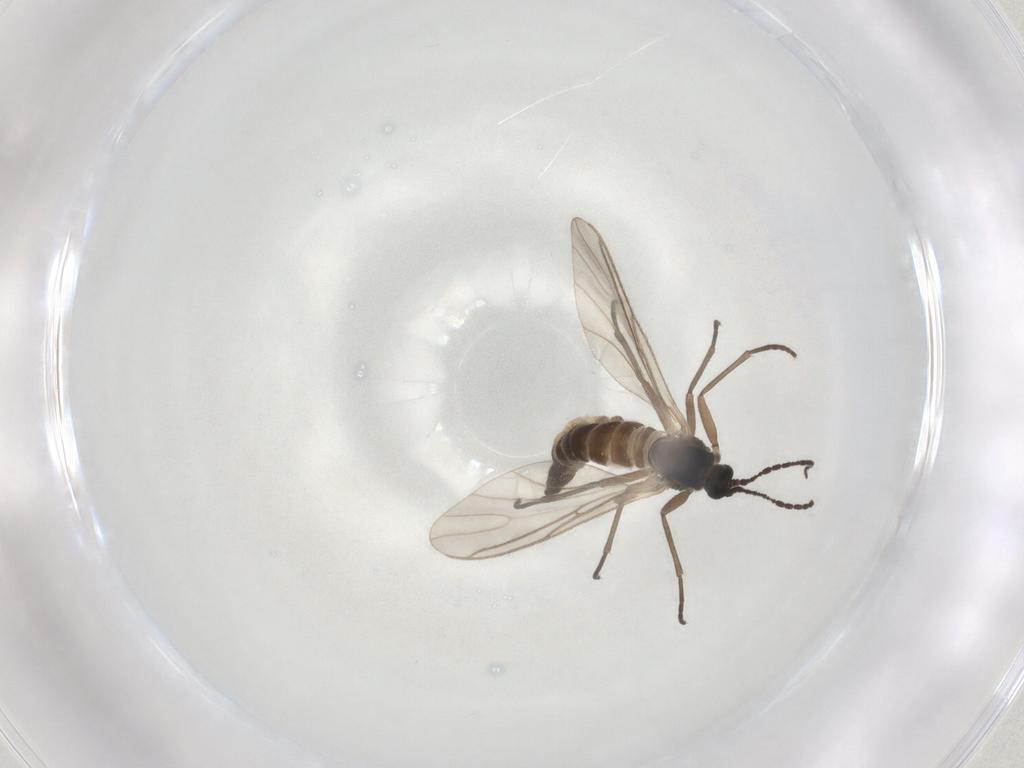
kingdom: Animalia
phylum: Arthropoda
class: Insecta
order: Diptera
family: Sciaridae
